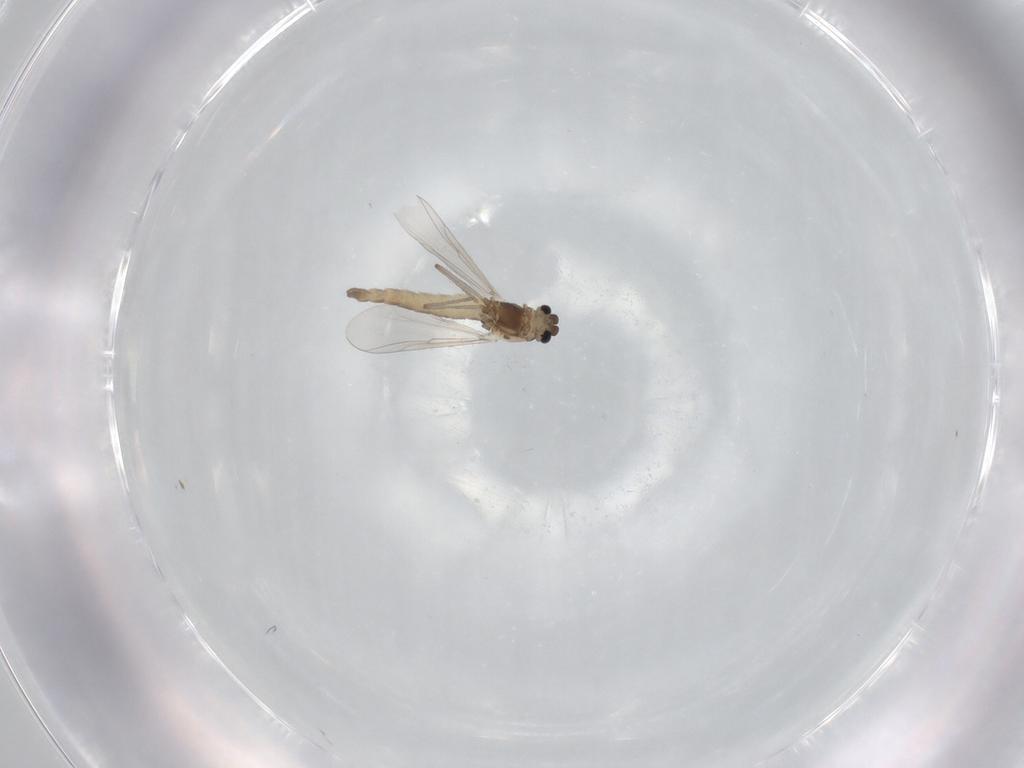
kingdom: Animalia
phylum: Arthropoda
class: Insecta
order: Diptera
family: Chironomidae
